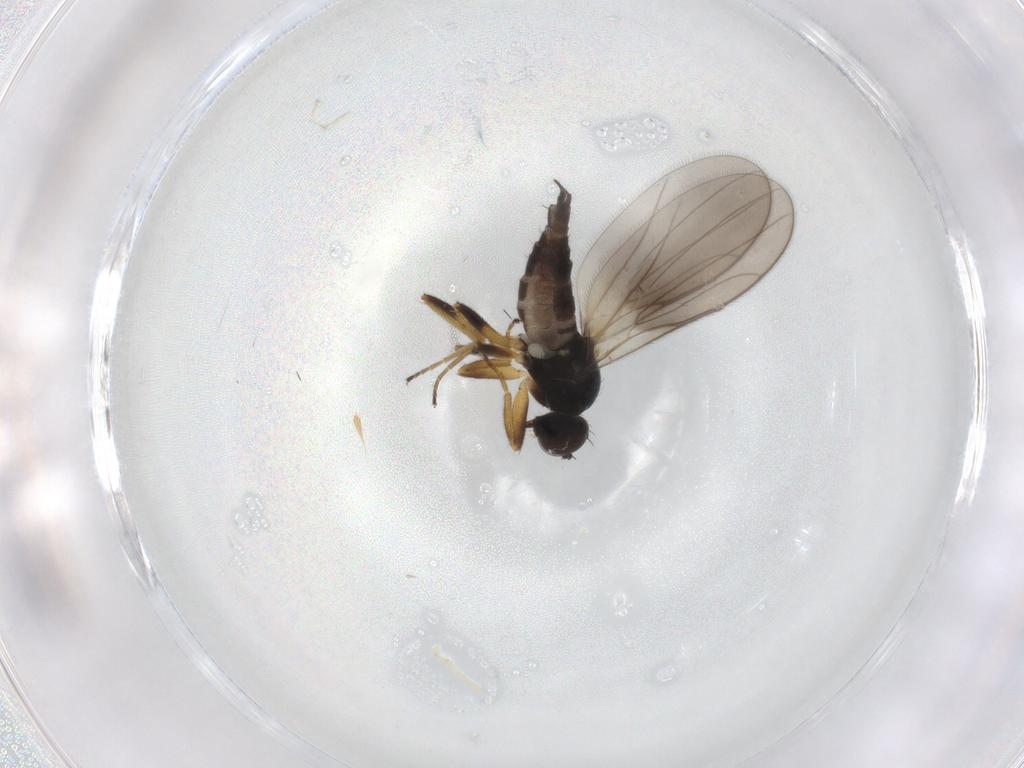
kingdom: Animalia
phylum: Arthropoda
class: Insecta
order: Diptera
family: Hybotidae
